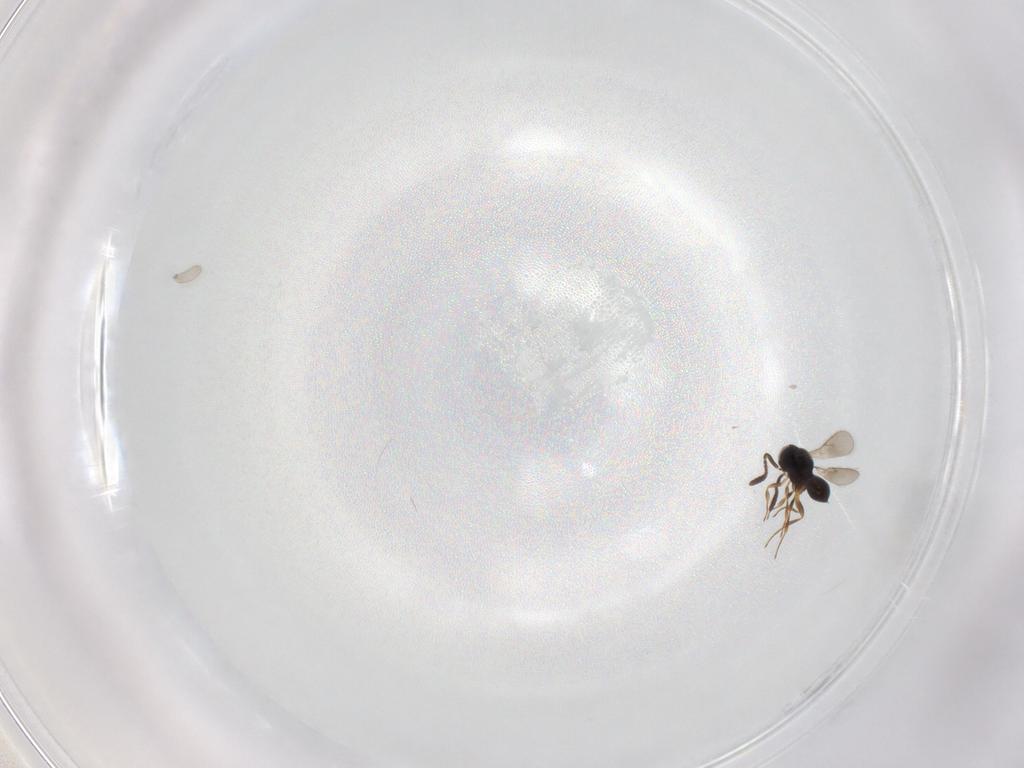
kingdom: Animalia
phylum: Arthropoda
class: Insecta
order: Hymenoptera
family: Scelionidae
